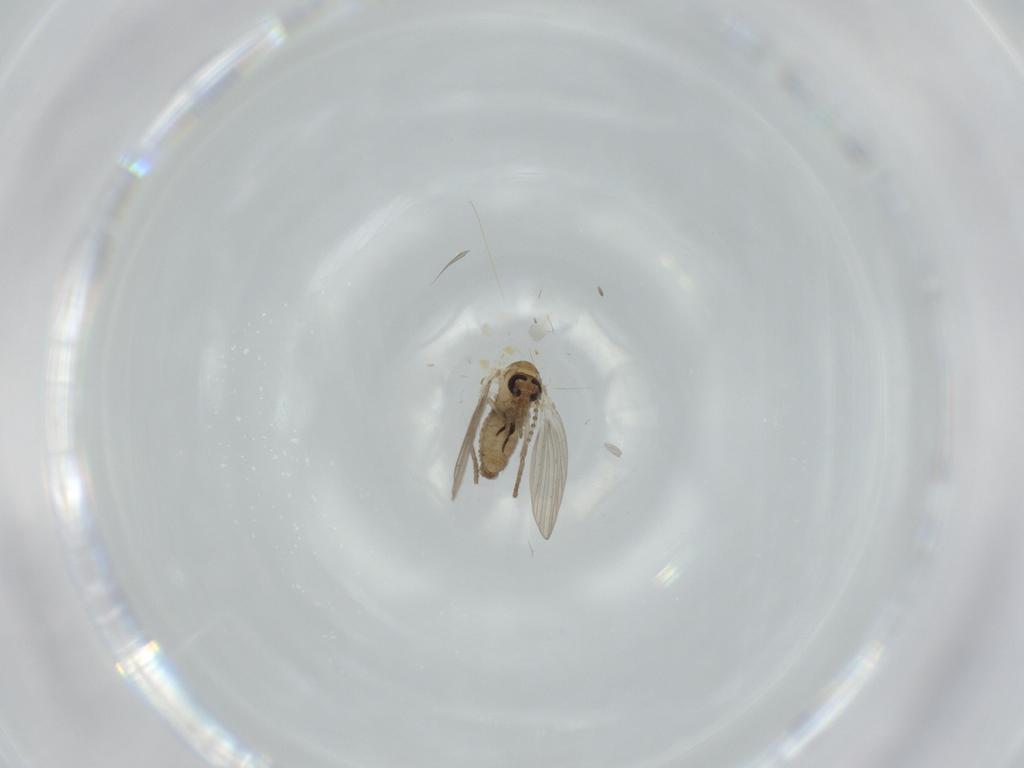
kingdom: Animalia
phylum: Arthropoda
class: Insecta
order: Diptera
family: Psychodidae
